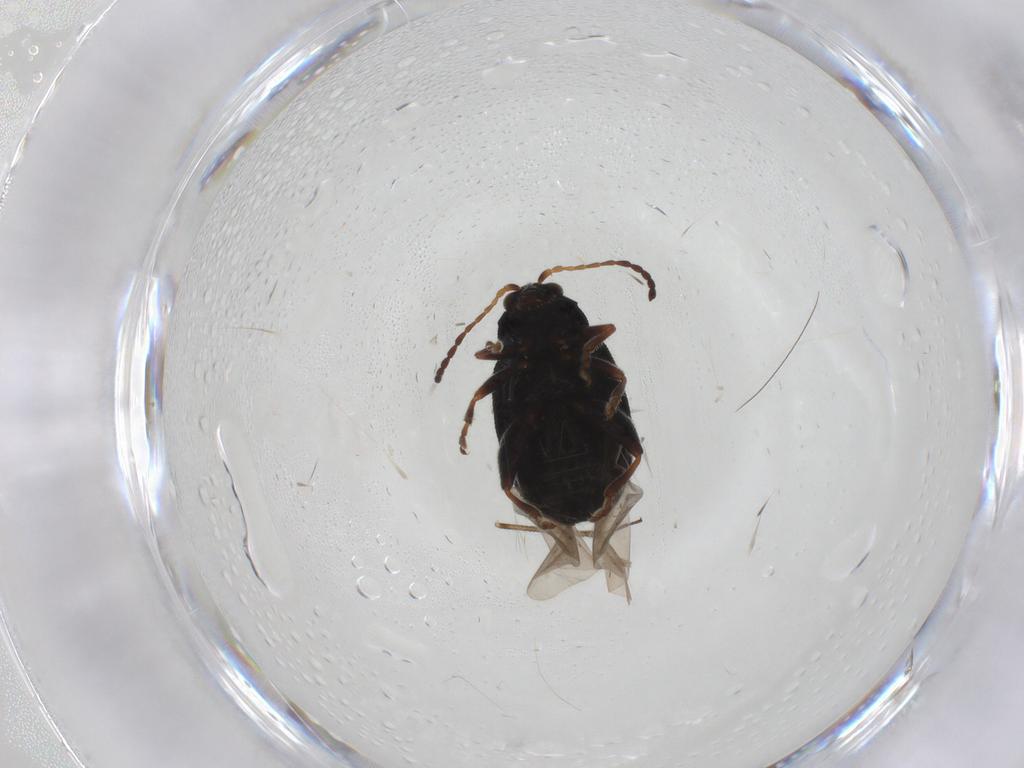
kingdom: Animalia
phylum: Arthropoda
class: Insecta
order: Coleoptera
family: Chrysomelidae
